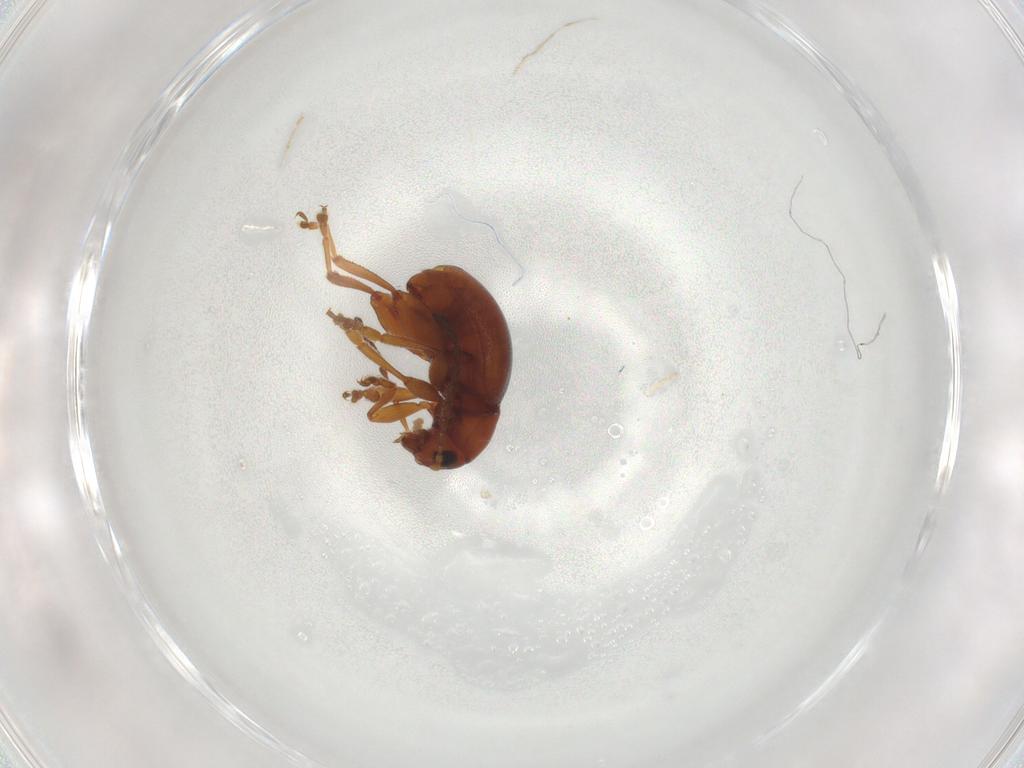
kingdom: Animalia
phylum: Arthropoda
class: Insecta
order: Coleoptera
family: Chrysomelidae
